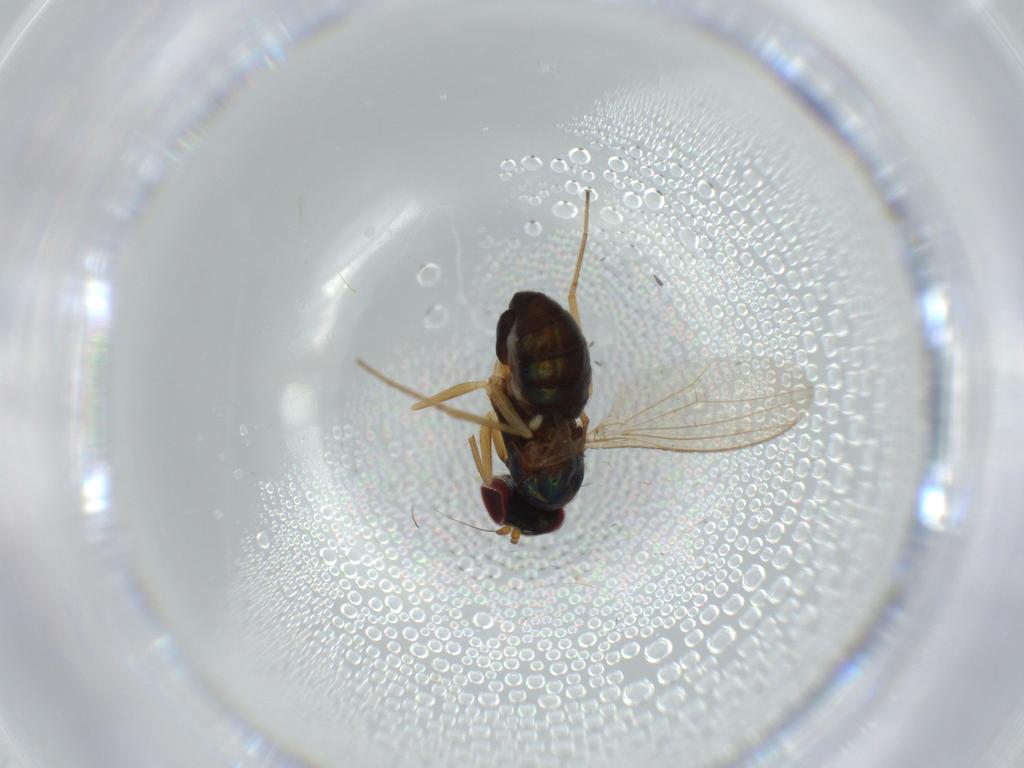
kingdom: Animalia
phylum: Arthropoda
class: Insecta
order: Diptera
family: Dolichopodidae
